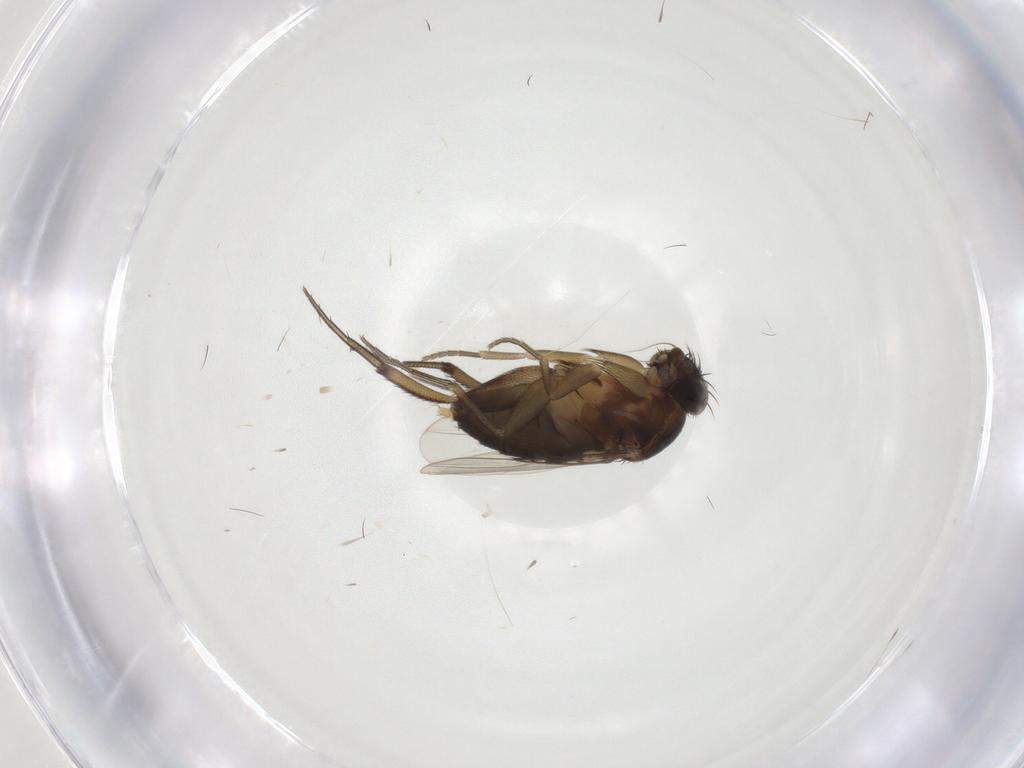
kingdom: Animalia
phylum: Arthropoda
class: Insecta
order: Diptera
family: Phoridae
